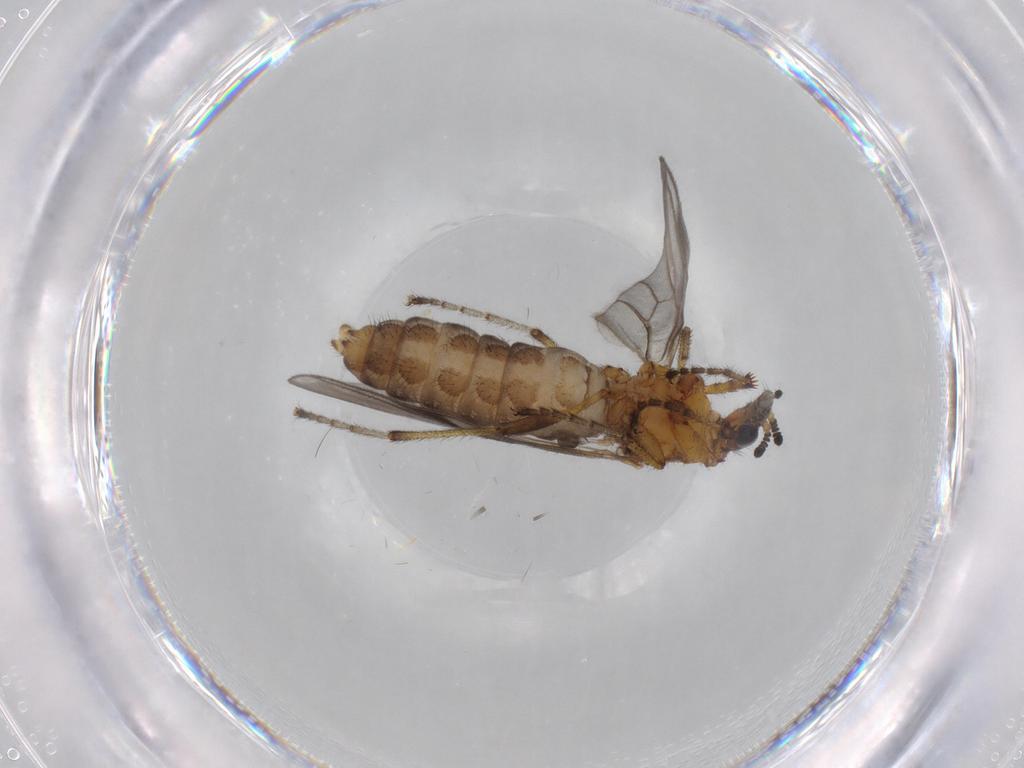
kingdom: Animalia
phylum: Arthropoda
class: Insecta
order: Diptera
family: Bibionidae
